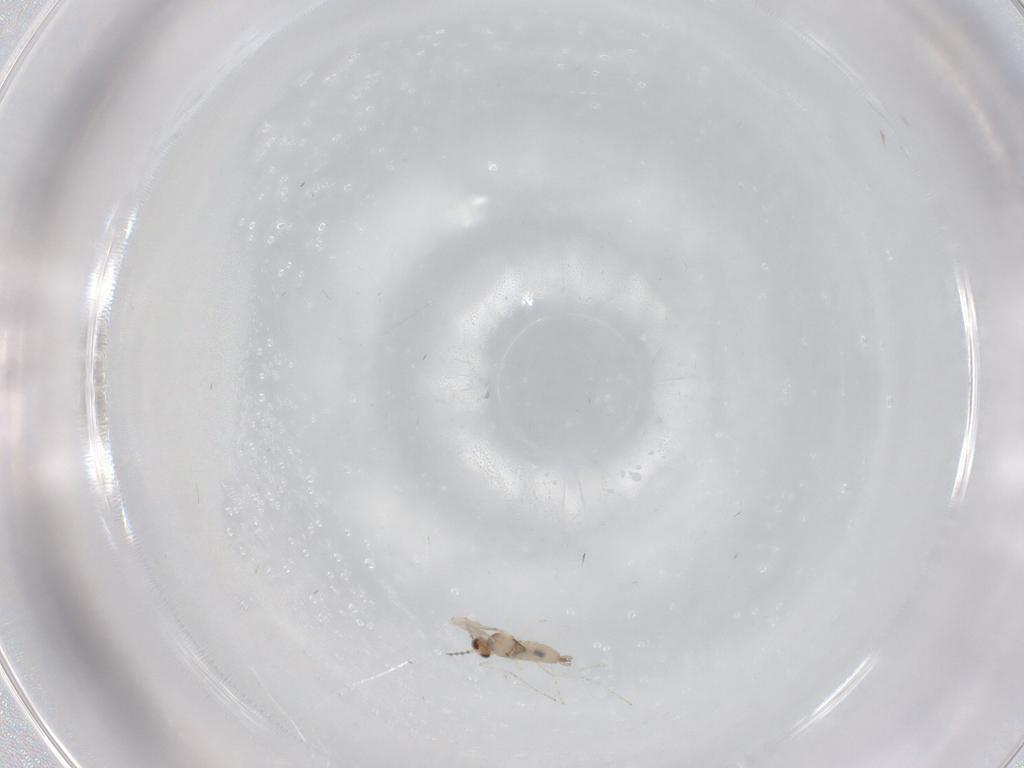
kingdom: Animalia
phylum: Arthropoda
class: Insecta
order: Diptera
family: Cecidomyiidae
